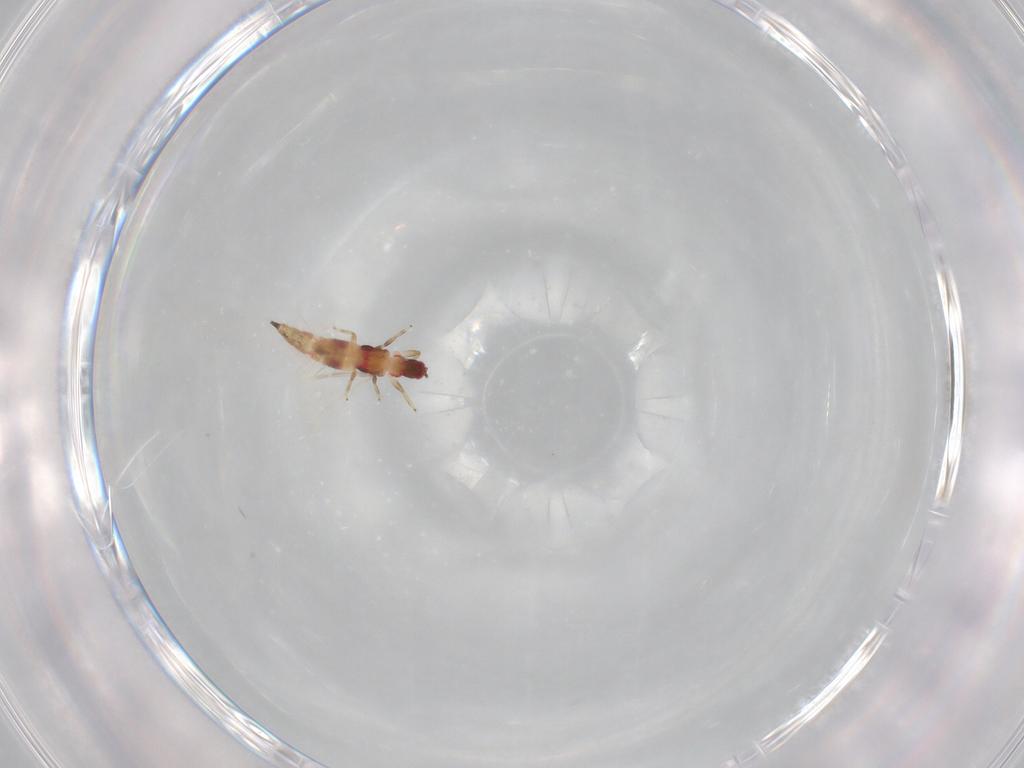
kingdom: Animalia
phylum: Arthropoda
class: Insecta
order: Thysanoptera
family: Phlaeothripidae
